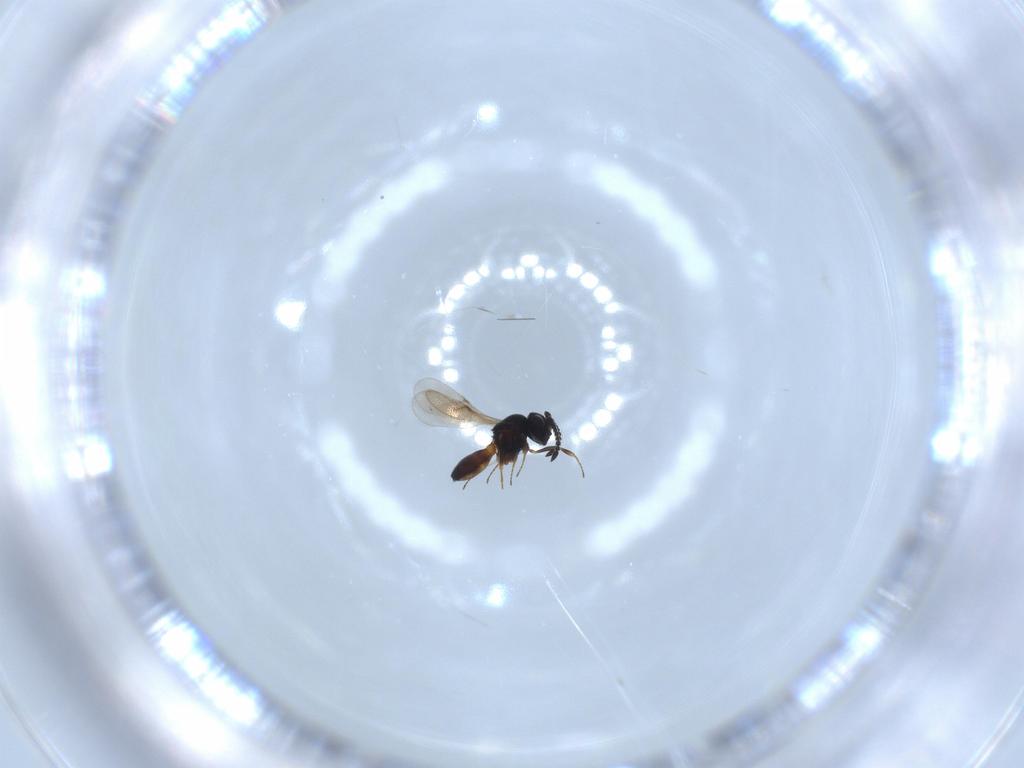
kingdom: Animalia
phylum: Arthropoda
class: Insecta
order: Hymenoptera
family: Scelionidae
